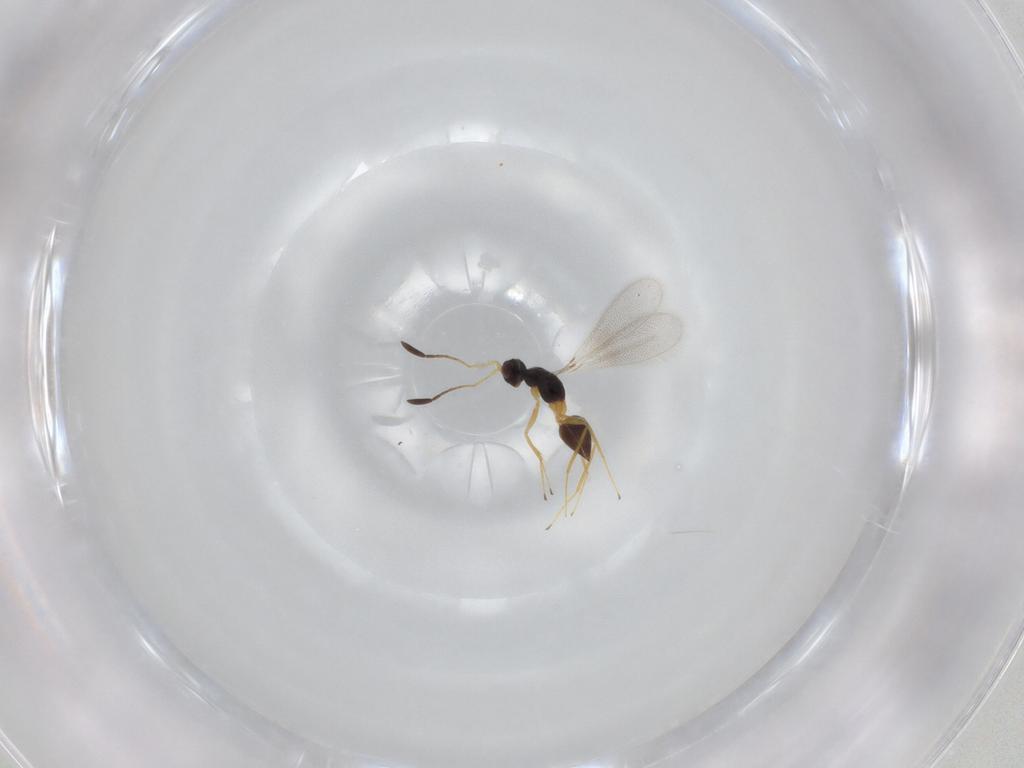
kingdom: Animalia
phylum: Arthropoda
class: Insecta
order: Hymenoptera
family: Mymaridae
